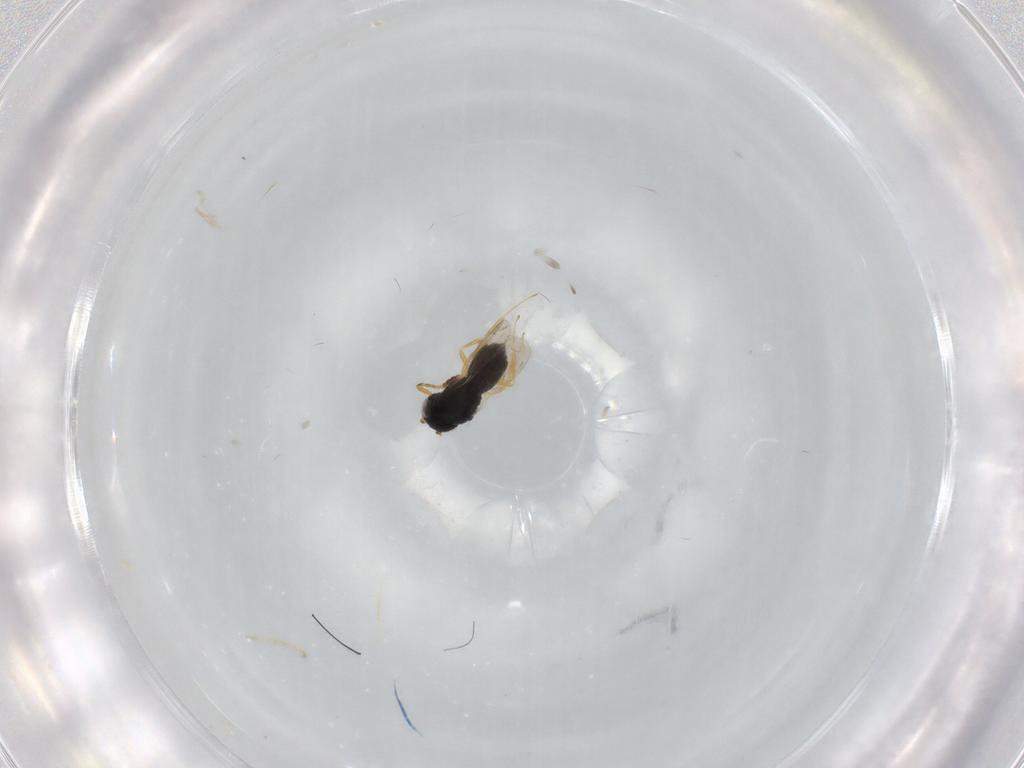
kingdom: Animalia
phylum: Arthropoda
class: Insecta
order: Hymenoptera
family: Scelionidae
